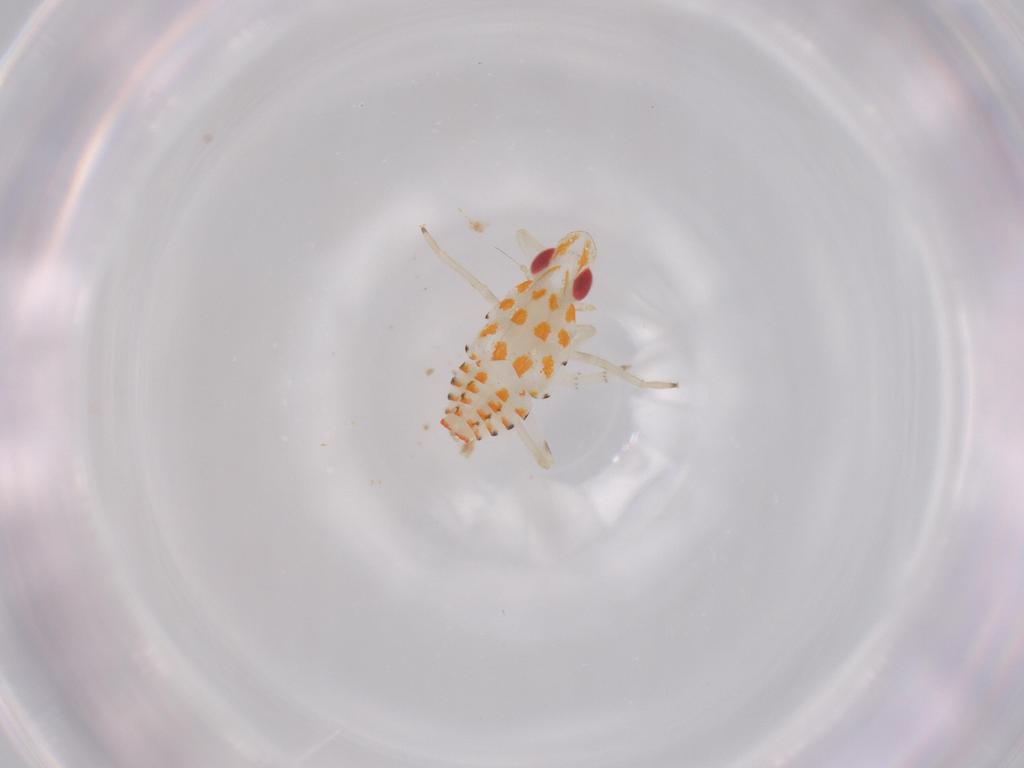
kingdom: Animalia
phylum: Arthropoda
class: Insecta
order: Hemiptera
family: Tropiduchidae
